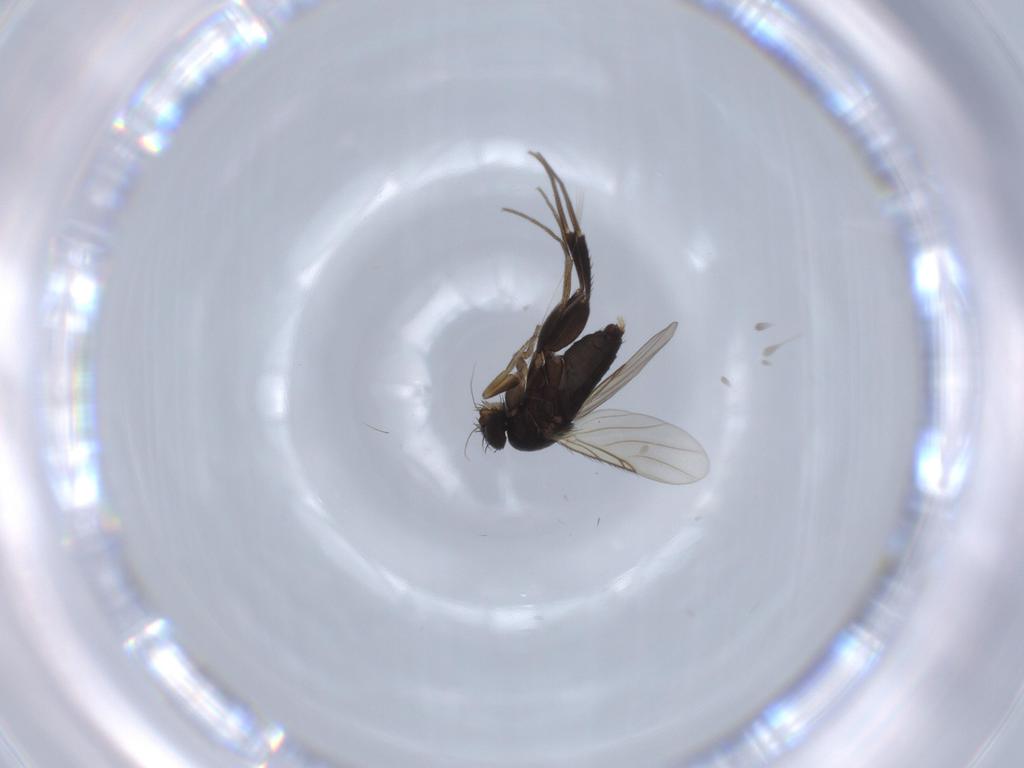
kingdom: Animalia
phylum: Arthropoda
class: Insecta
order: Diptera
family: Phoridae
